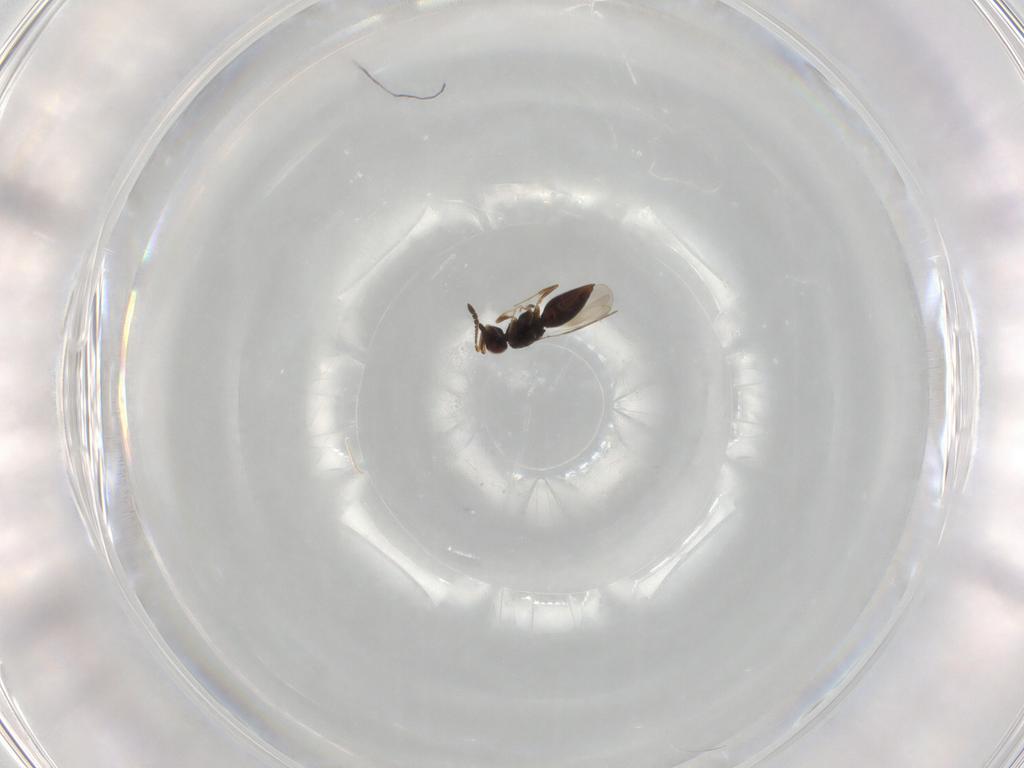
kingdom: Animalia
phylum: Arthropoda
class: Insecta
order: Hymenoptera
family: Ceraphronidae
